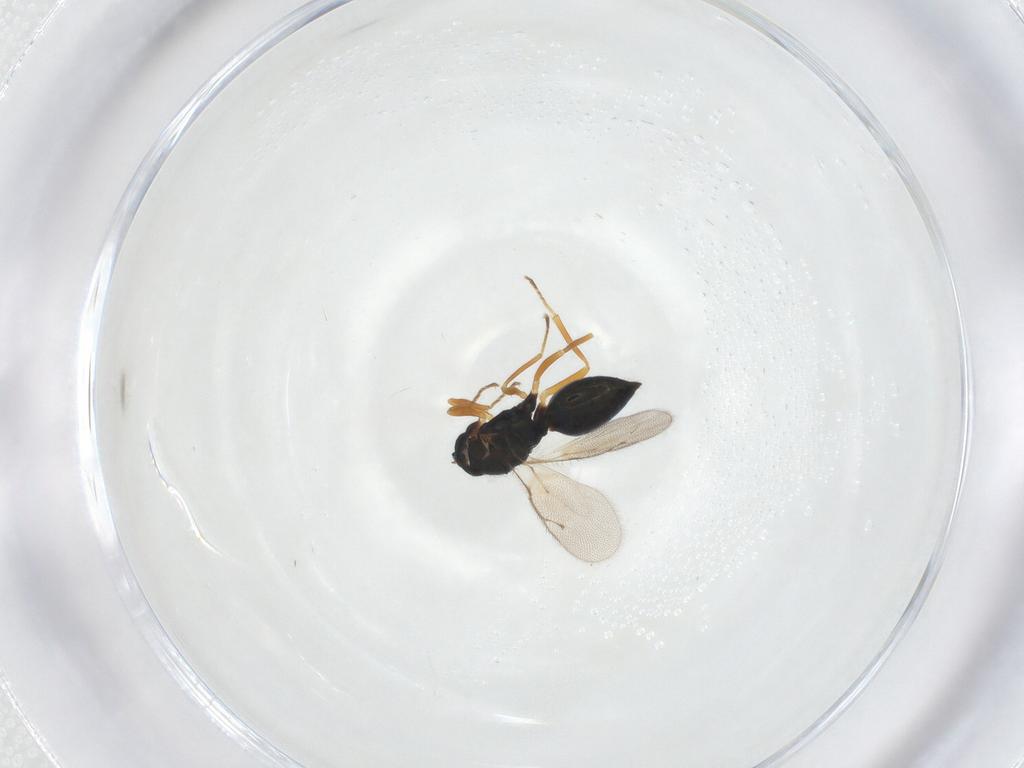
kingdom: Animalia
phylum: Arthropoda
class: Insecta
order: Hymenoptera
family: Pteromalidae
